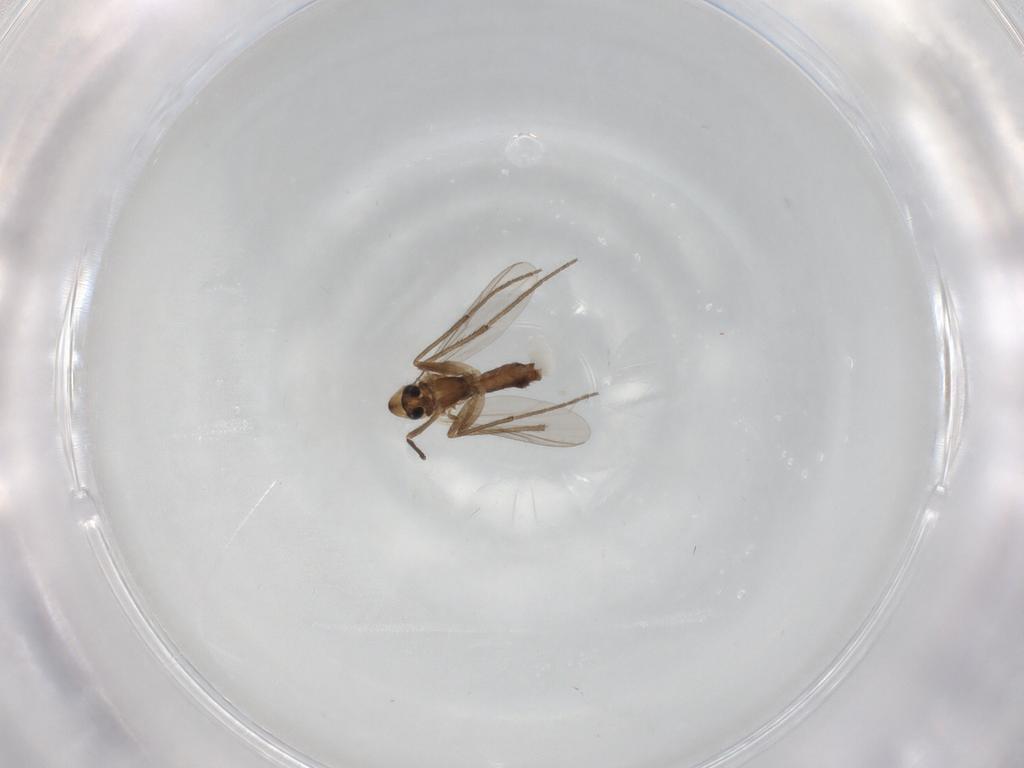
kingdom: Animalia
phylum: Arthropoda
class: Insecta
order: Diptera
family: Chironomidae
